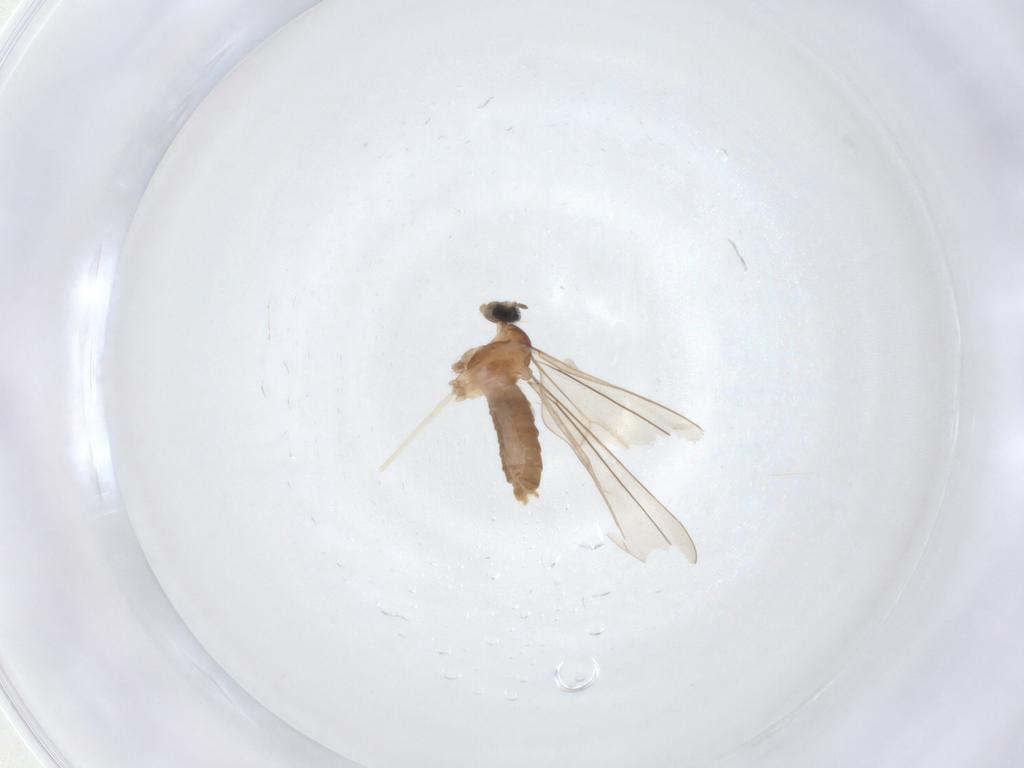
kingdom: Animalia
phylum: Arthropoda
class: Insecta
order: Diptera
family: Cecidomyiidae
